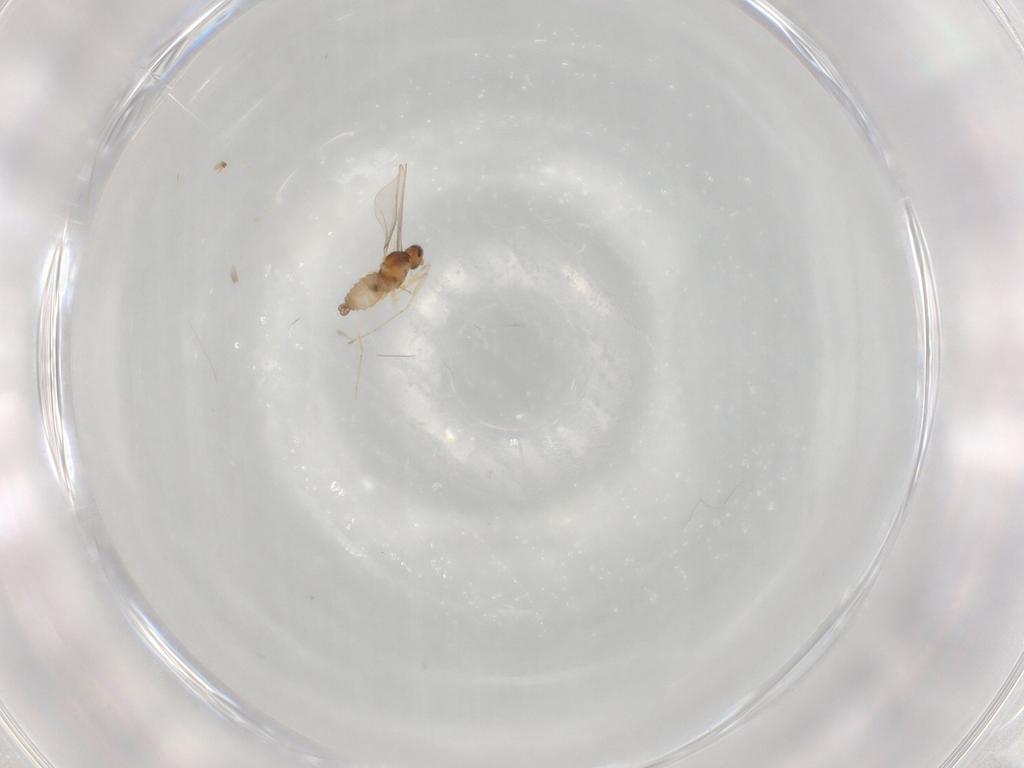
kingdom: Animalia
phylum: Arthropoda
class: Insecta
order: Diptera
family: Cecidomyiidae
